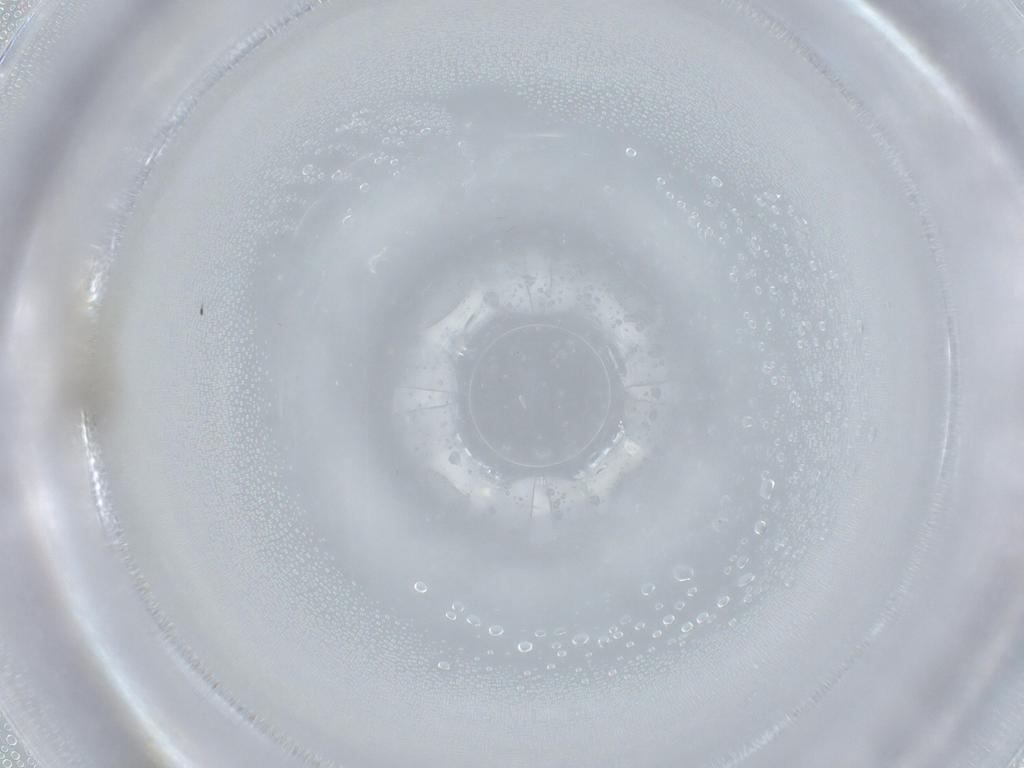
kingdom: Animalia
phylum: Arthropoda
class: Insecta
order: Diptera
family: Cecidomyiidae
